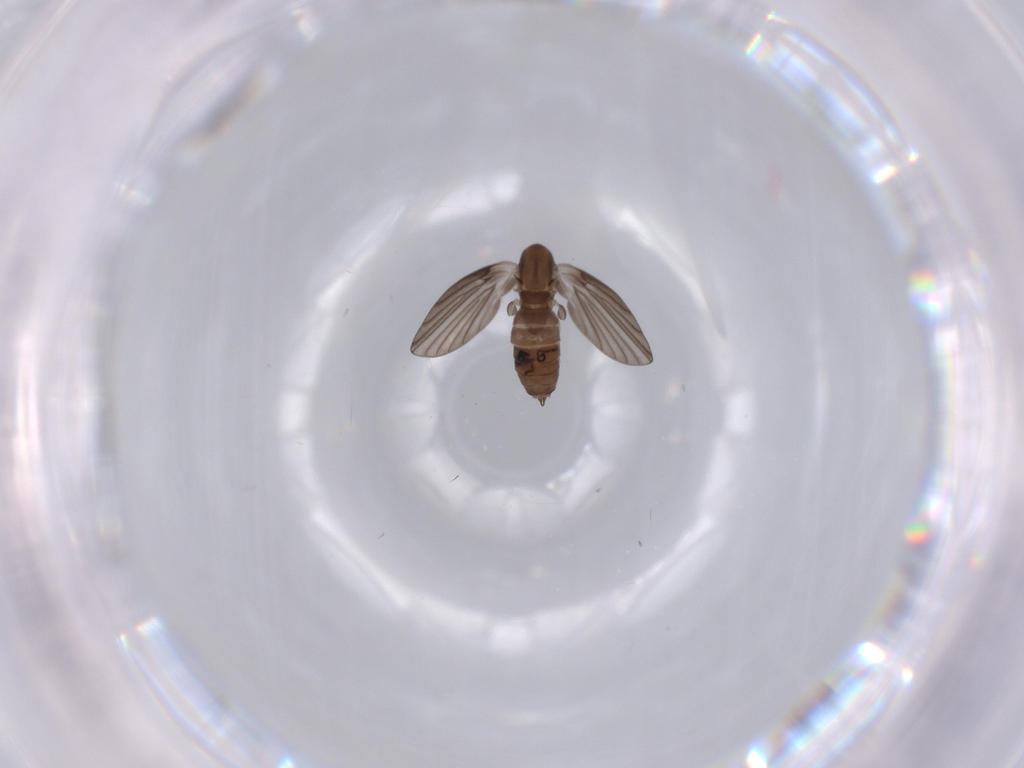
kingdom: Animalia
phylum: Arthropoda
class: Insecta
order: Diptera
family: Psychodidae
